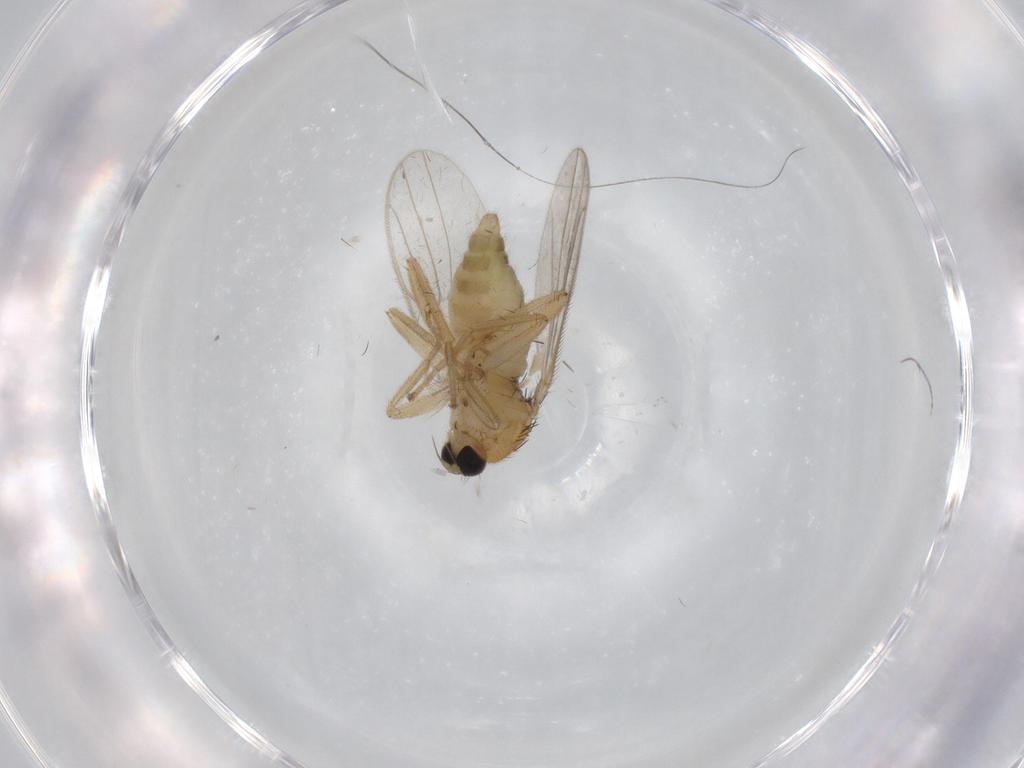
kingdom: Animalia
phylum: Arthropoda
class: Insecta
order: Diptera
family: Hybotidae
